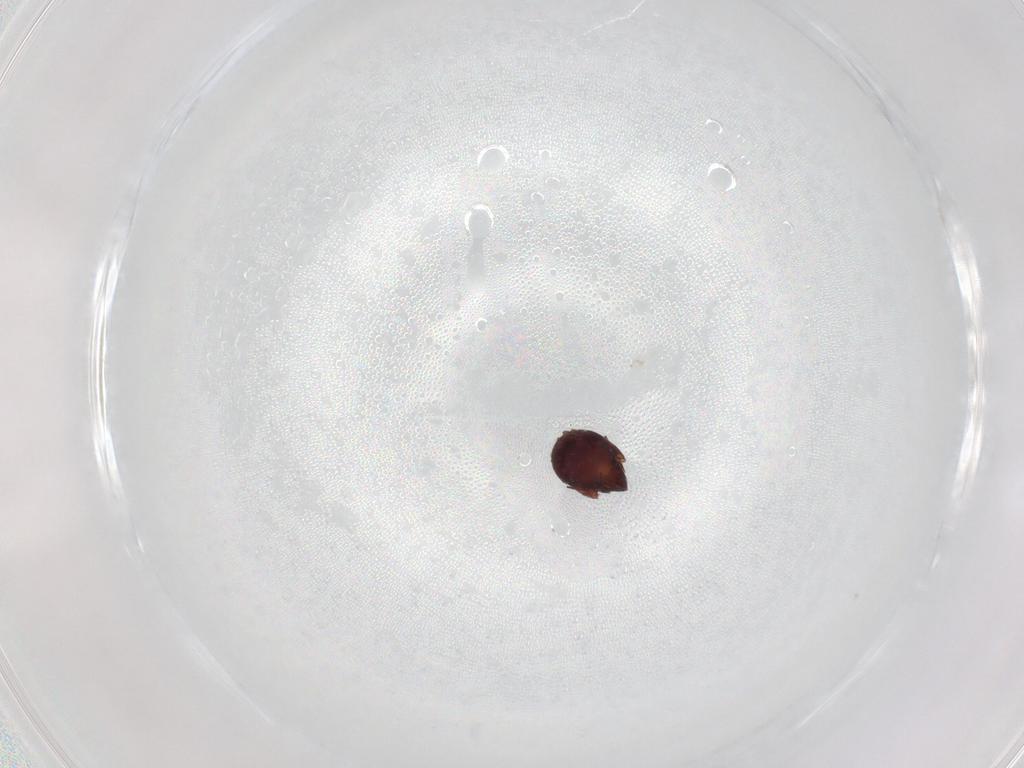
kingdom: Animalia
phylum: Arthropoda
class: Arachnida
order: Sarcoptiformes
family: Humerobatidae
